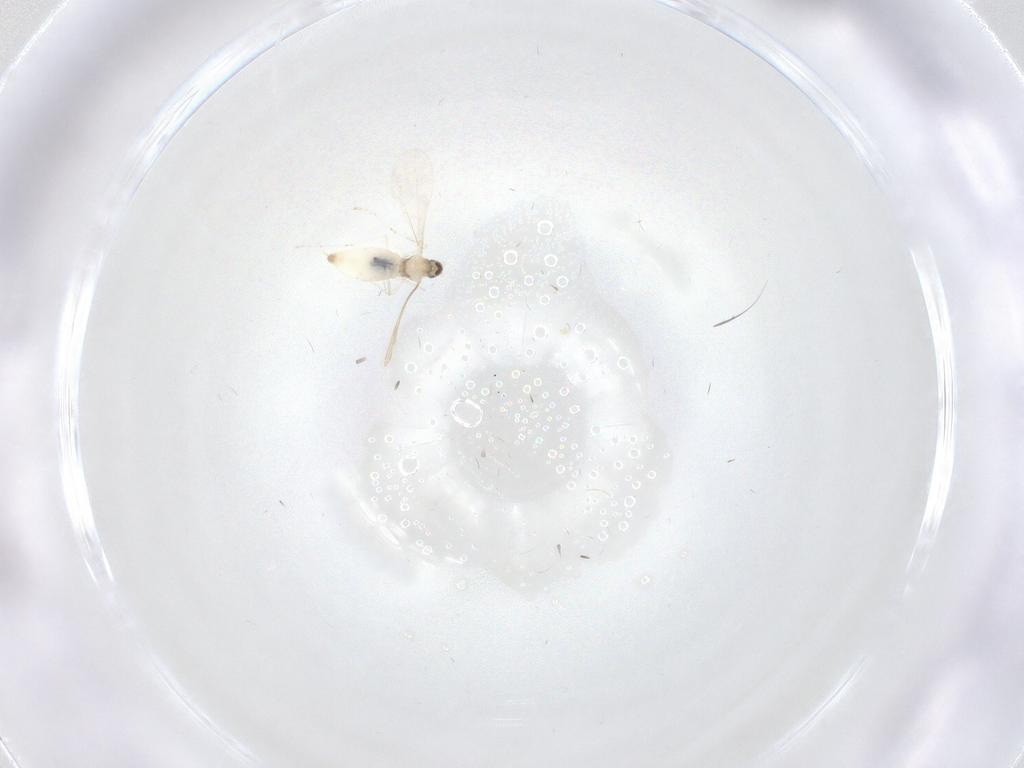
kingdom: Animalia
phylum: Arthropoda
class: Insecta
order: Diptera
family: Cecidomyiidae
